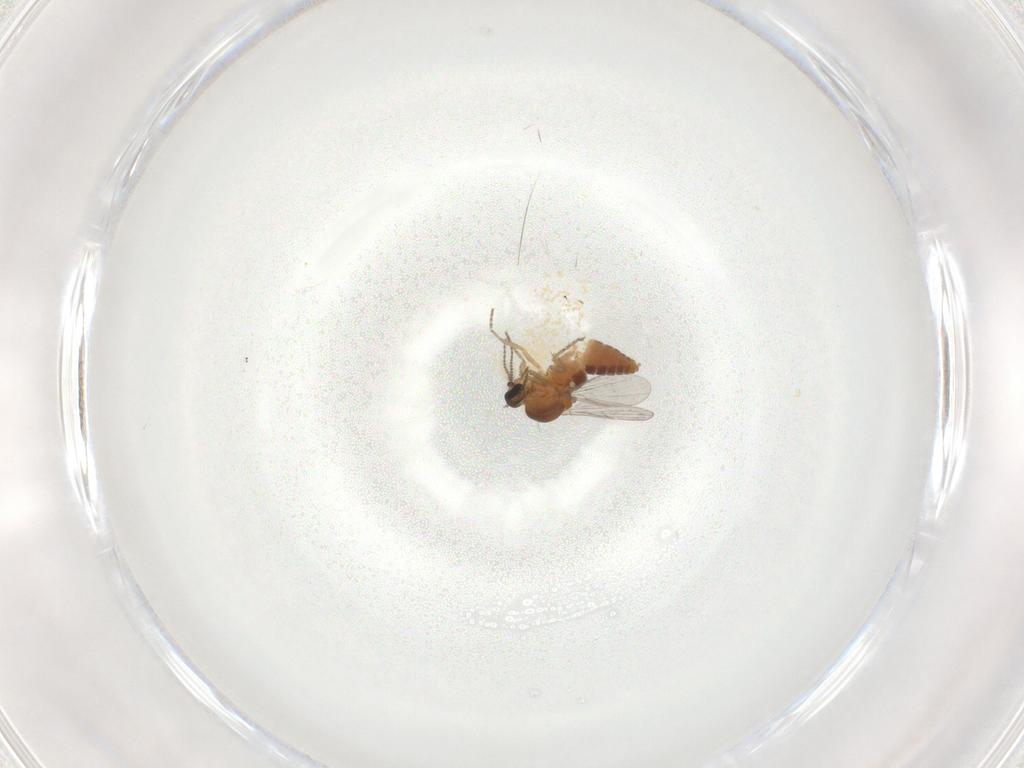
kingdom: Animalia
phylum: Arthropoda
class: Insecta
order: Diptera
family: Ceratopogonidae
